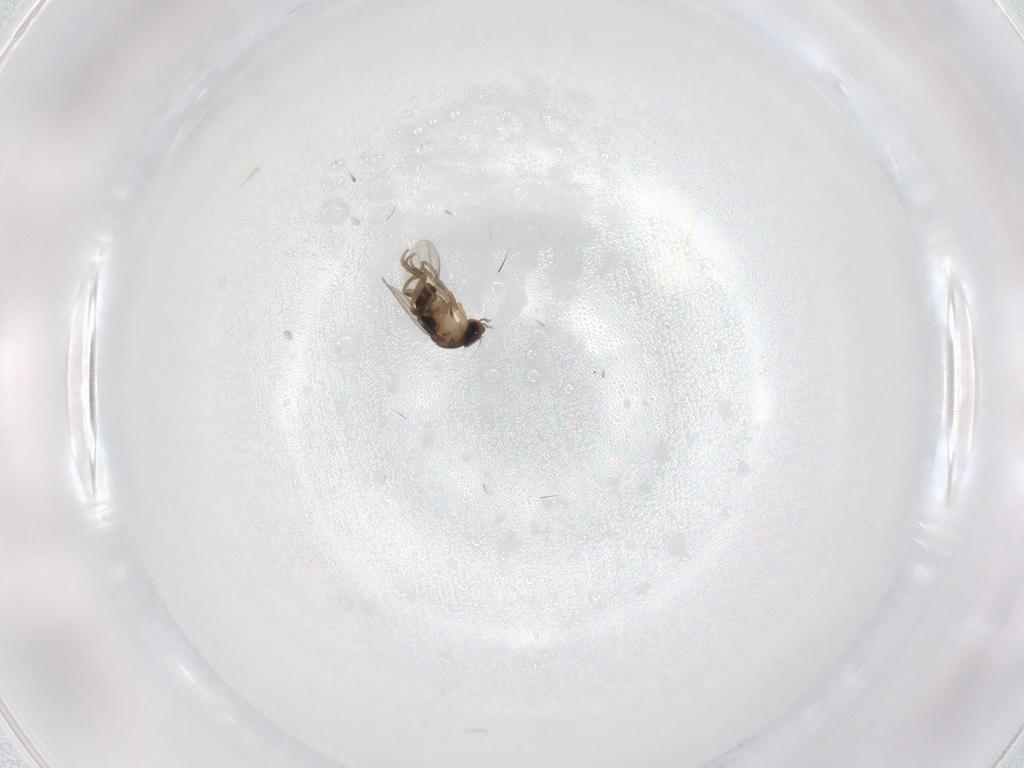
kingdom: Animalia
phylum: Arthropoda
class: Insecta
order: Diptera
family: Phoridae
